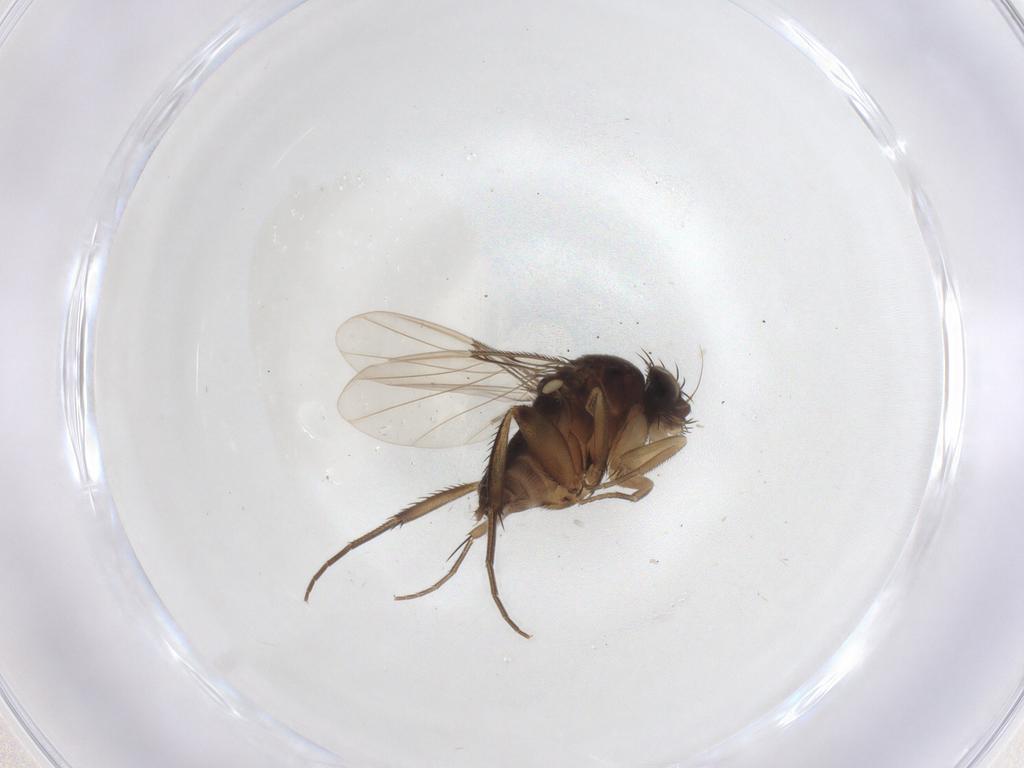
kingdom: Animalia
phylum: Arthropoda
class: Insecta
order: Diptera
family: Phoridae
